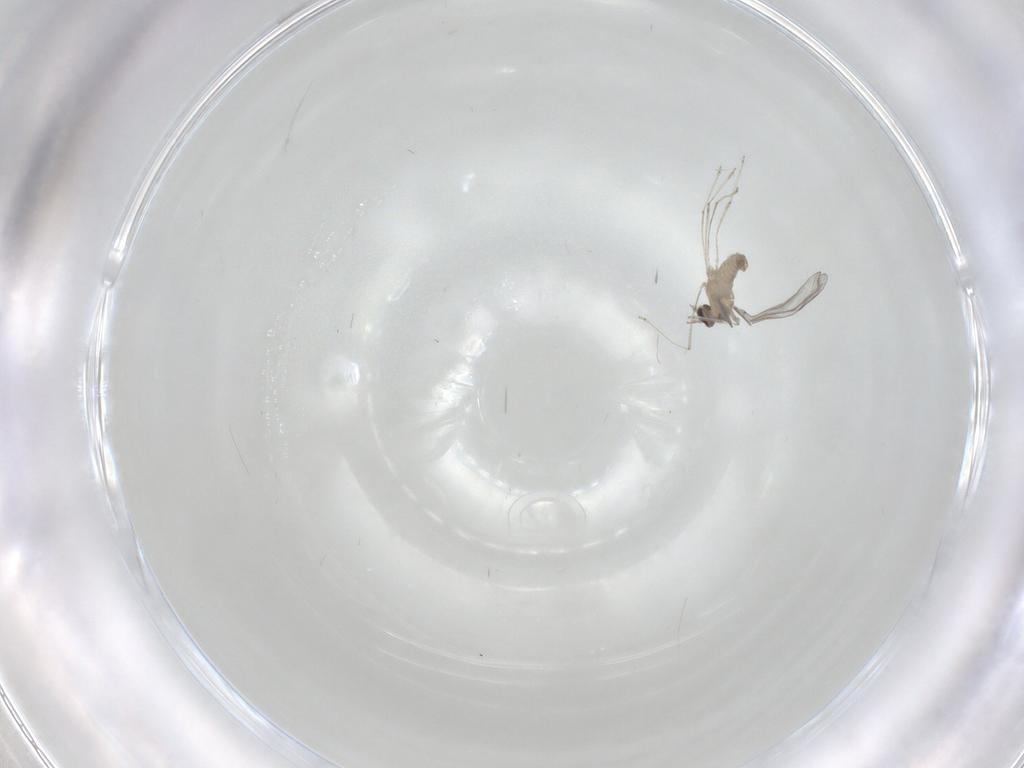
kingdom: Animalia
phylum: Arthropoda
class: Insecta
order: Diptera
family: Cecidomyiidae
